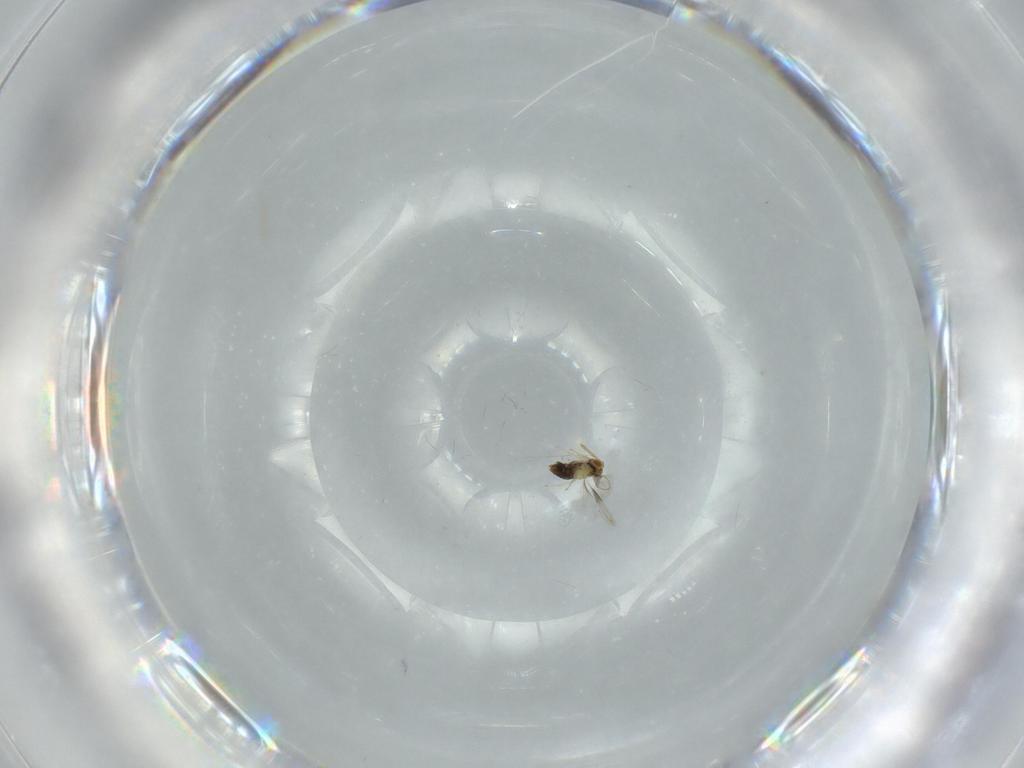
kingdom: Animalia
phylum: Arthropoda
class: Insecta
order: Hymenoptera
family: Aphelinidae
